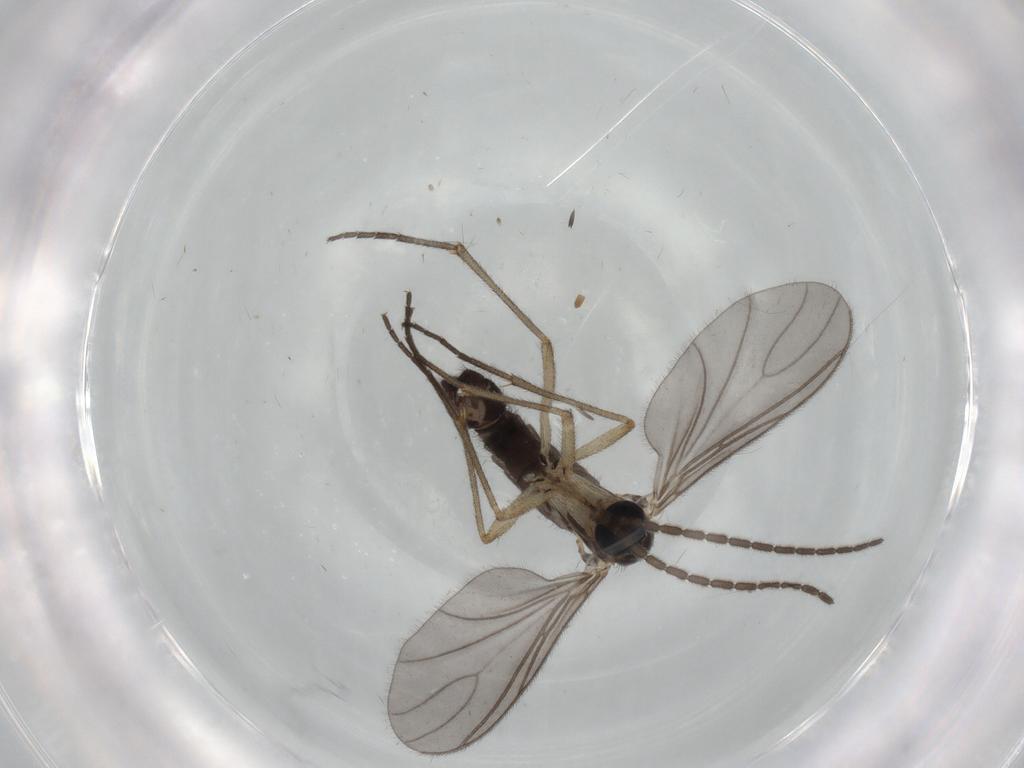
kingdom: Animalia
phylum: Arthropoda
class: Insecta
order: Diptera
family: Sciaridae
